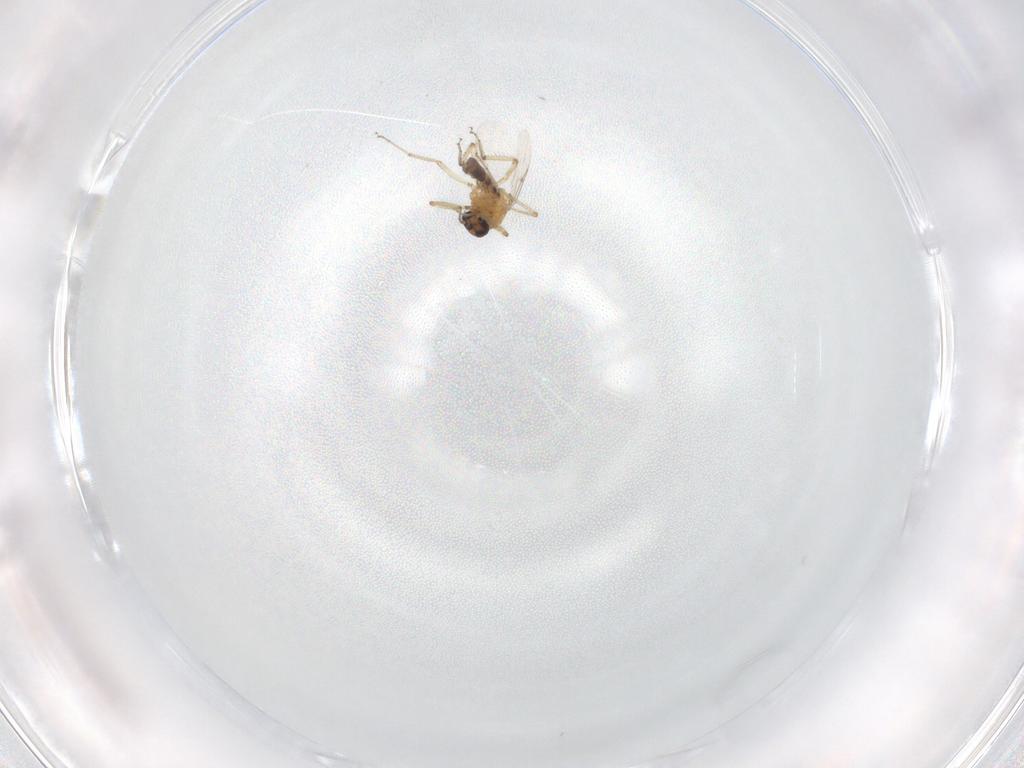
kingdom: Animalia
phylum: Arthropoda
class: Insecta
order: Diptera
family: Ceratopogonidae
